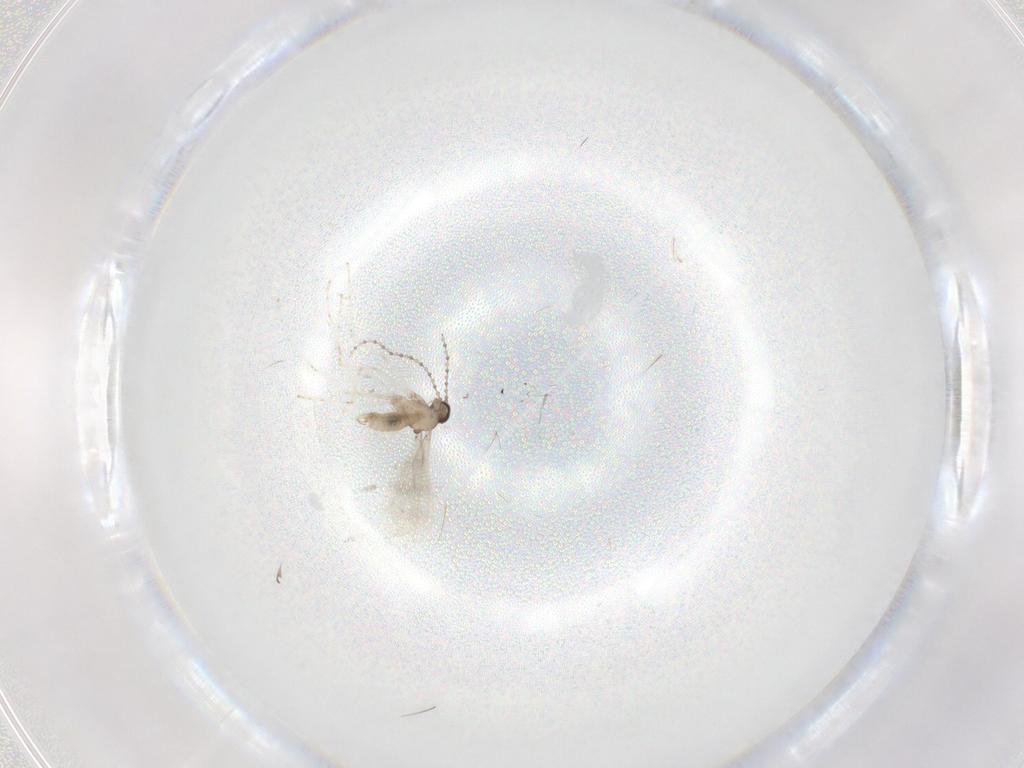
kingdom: Animalia
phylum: Arthropoda
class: Insecta
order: Diptera
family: Cecidomyiidae
